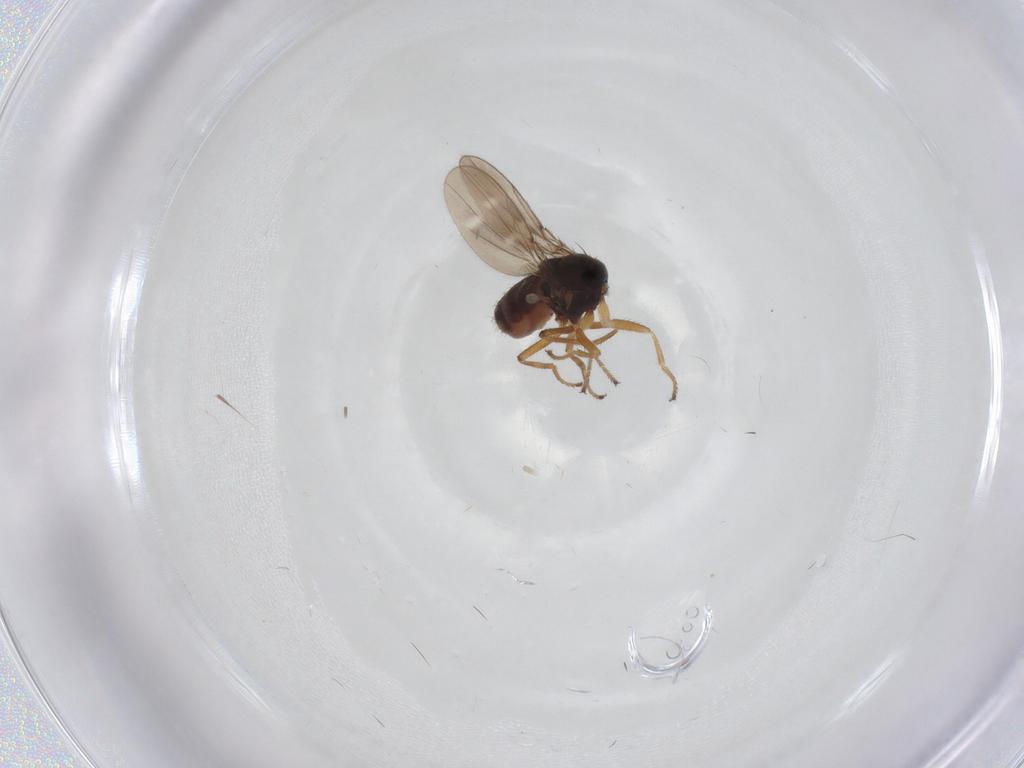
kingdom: Animalia
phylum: Arthropoda
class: Insecta
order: Diptera
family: Ephydridae
